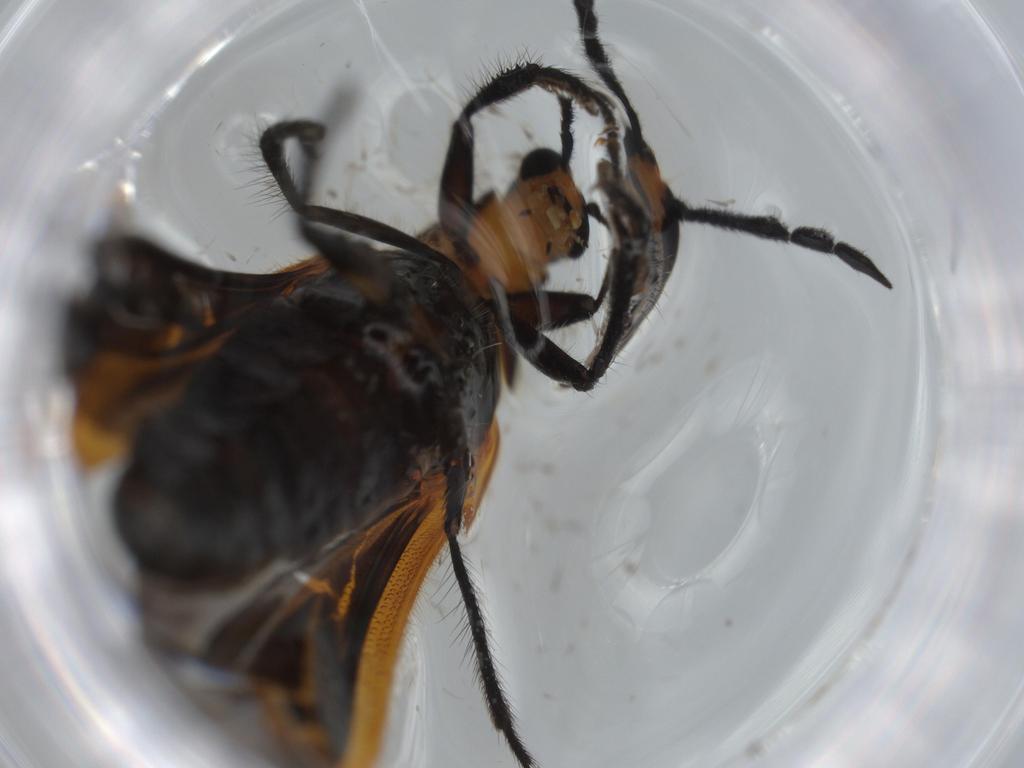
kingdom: Animalia
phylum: Arthropoda
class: Insecta
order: Coleoptera
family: Cleridae
